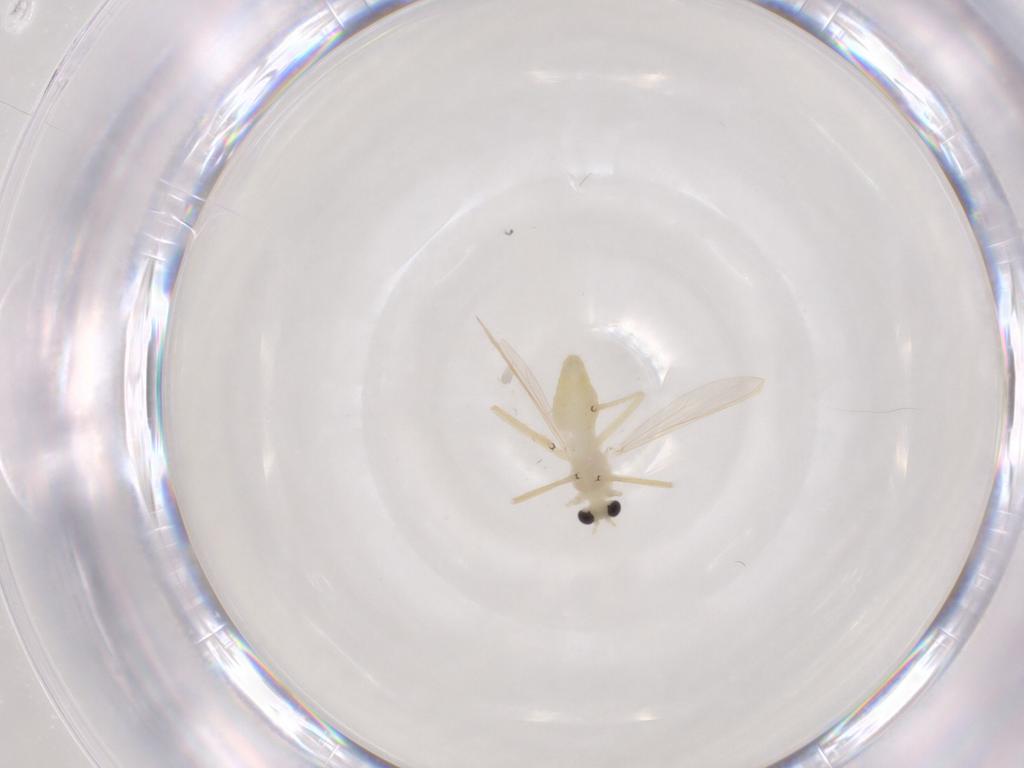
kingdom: Animalia
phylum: Arthropoda
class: Insecta
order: Diptera
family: Chironomidae
